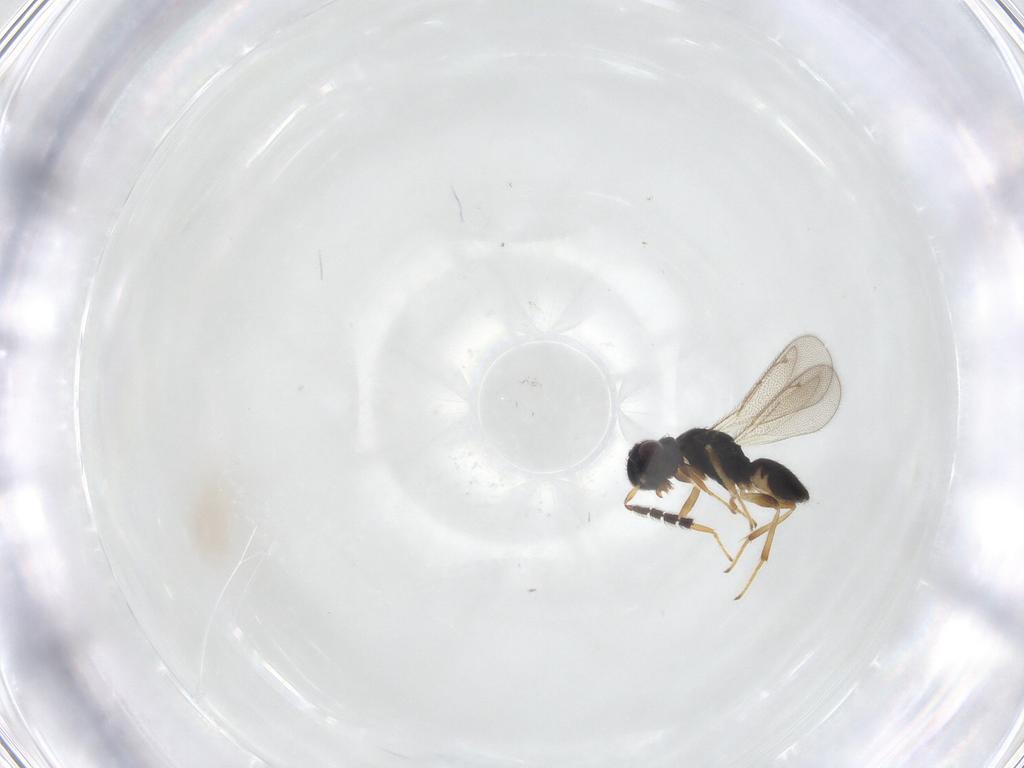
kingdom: Animalia
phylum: Arthropoda
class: Insecta
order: Hymenoptera
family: Eulophidae
